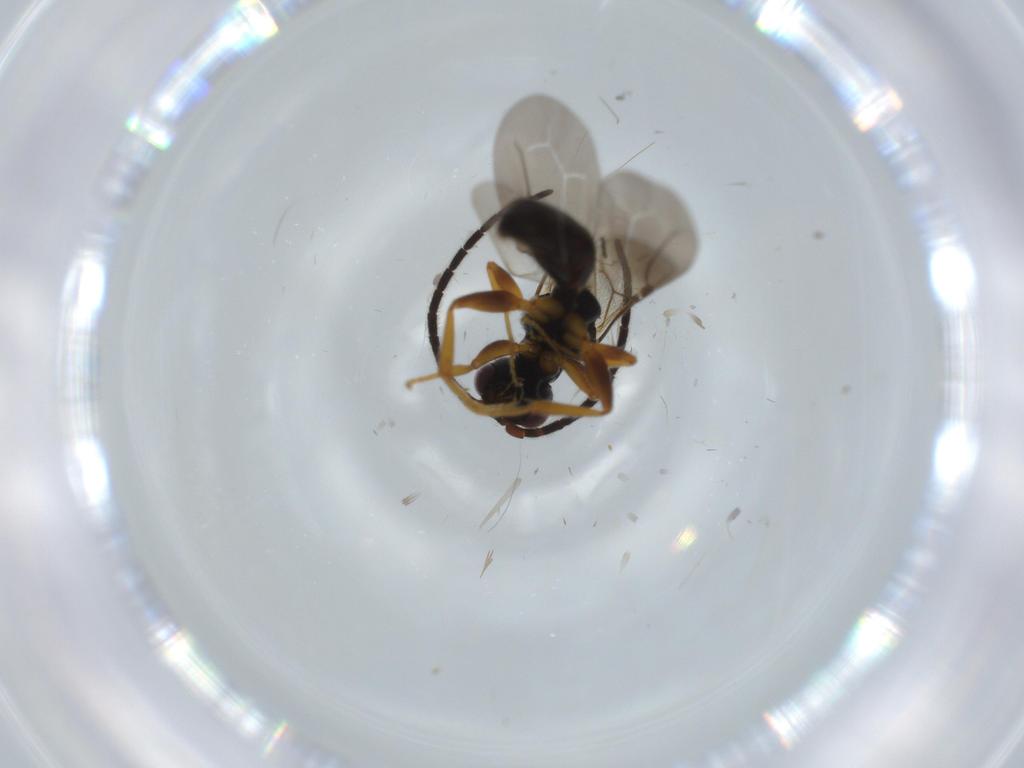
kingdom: Animalia
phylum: Arthropoda
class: Insecta
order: Hymenoptera
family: Bethylidae
